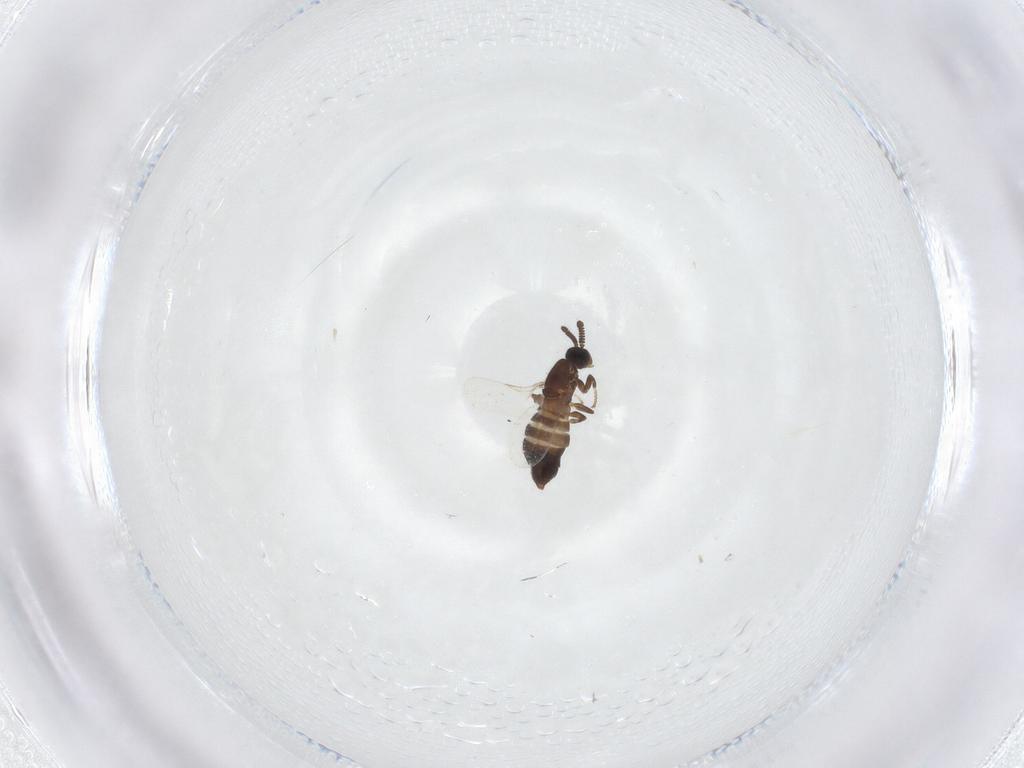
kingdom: Animalia
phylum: Arthropoda
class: Insecta
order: Diptera
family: Scatopsidae
